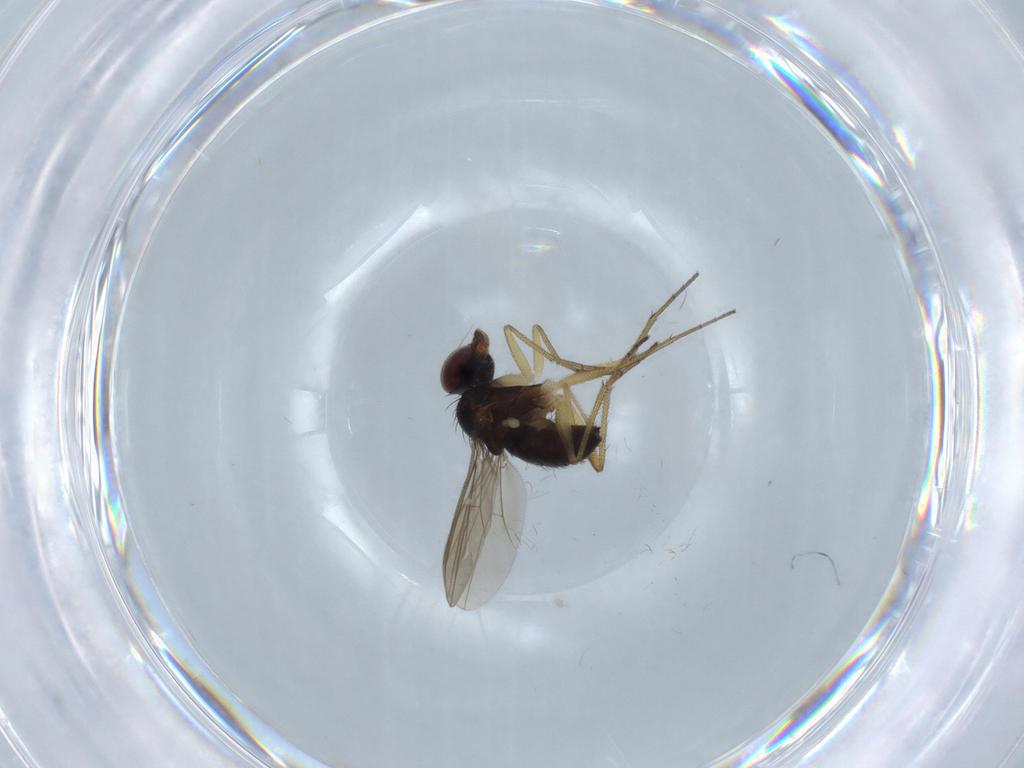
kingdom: Animalia
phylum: Arthropoda
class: Insecta
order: Diptera
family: Dolichopodidae
